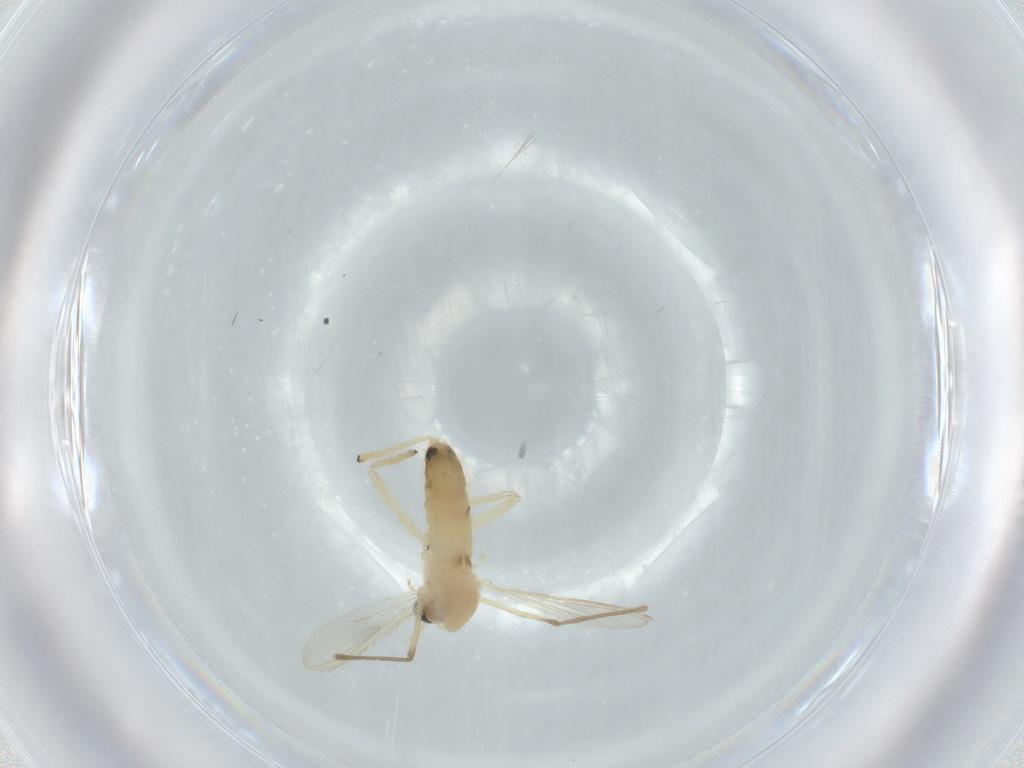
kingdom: Animalia
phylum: Arthropoda
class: Insecta
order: Diptera
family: Chironomidae
